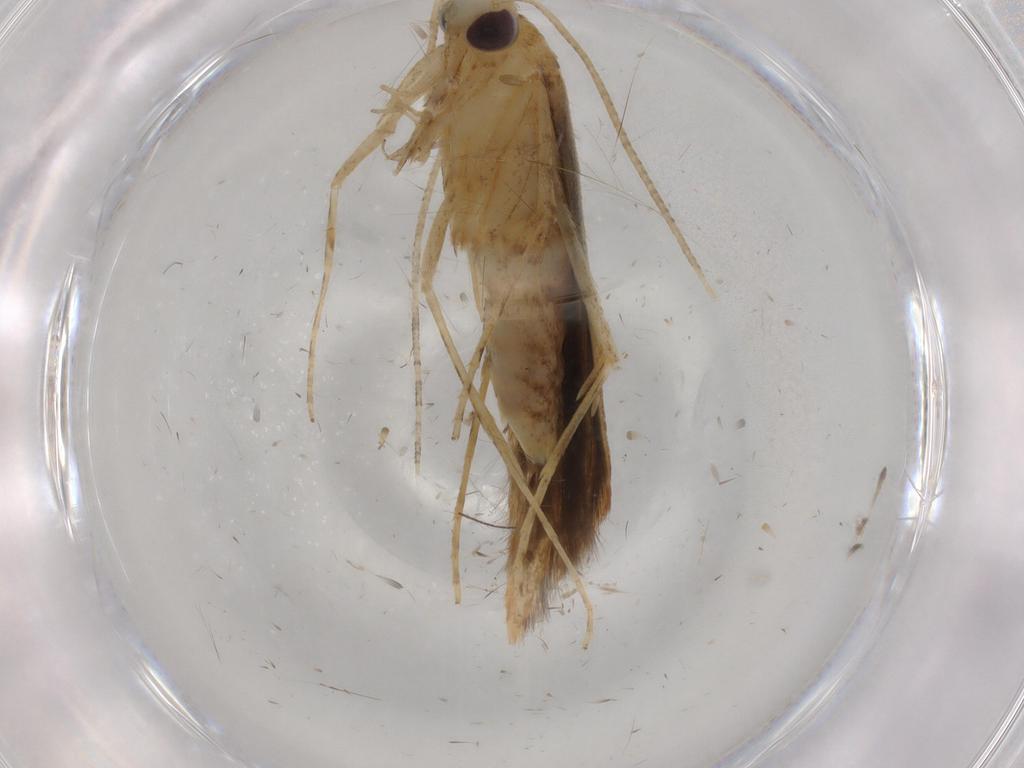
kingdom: Animalia
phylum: Arthropoda
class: Insecta
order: Lepidoptera
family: Batrachedridae
